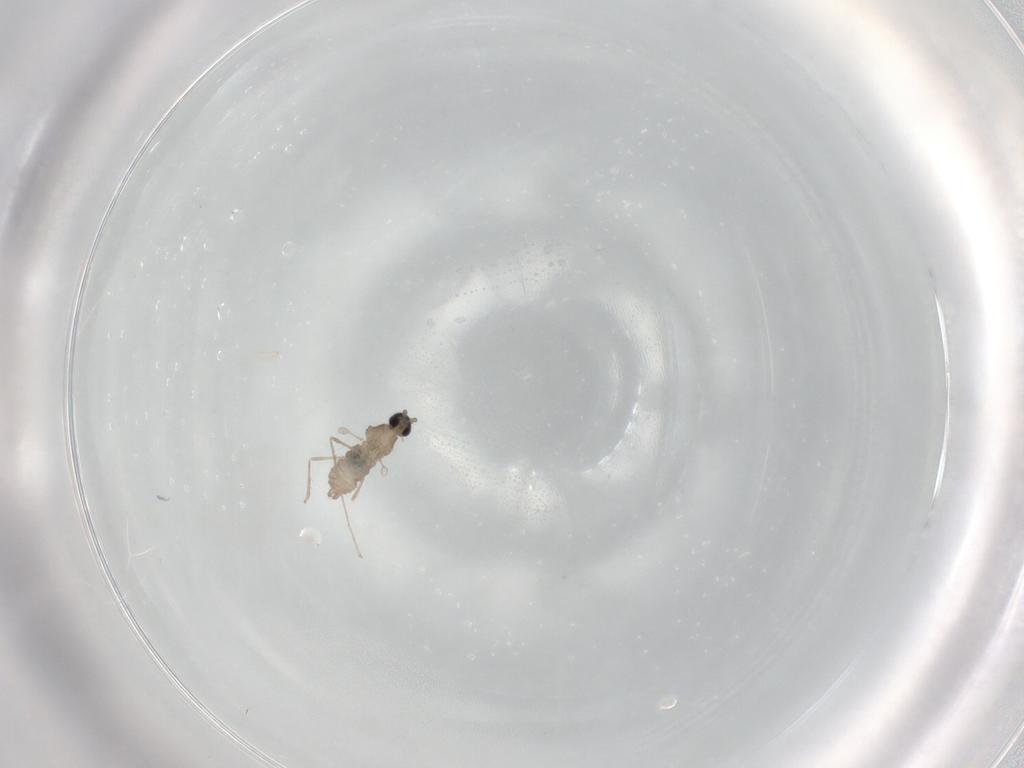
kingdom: Animalia
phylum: Arthropoda
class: Insecta
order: Diptera
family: Cecidomyiidae
